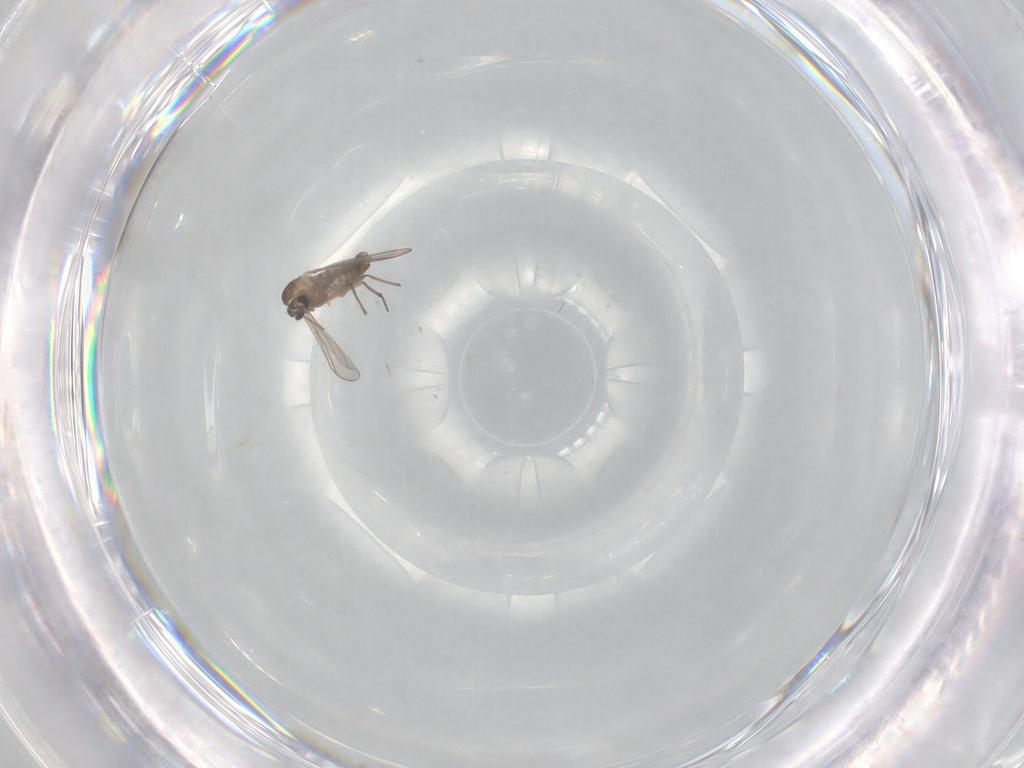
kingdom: Animalia
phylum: Arthropoda
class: Insecta
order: Diptera
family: Chironomidae
